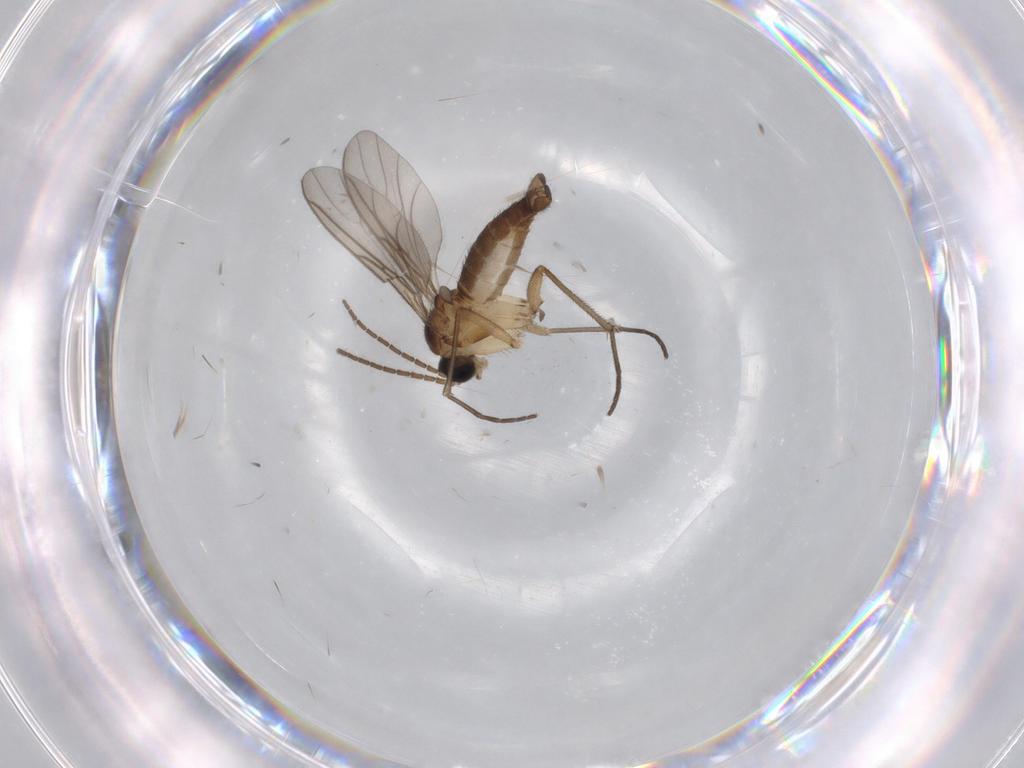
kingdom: Animalia
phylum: Arthropoda
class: Insecta
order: Diptera
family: Sciaridae
